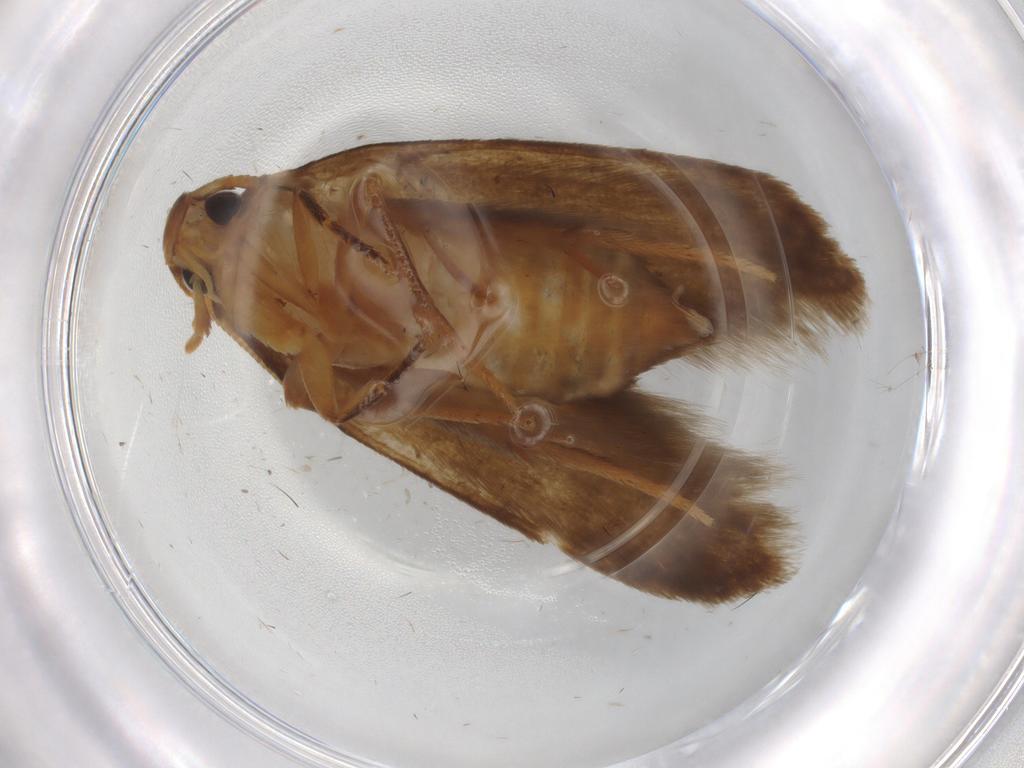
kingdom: Animalia
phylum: Arthropoda
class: Insecta
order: Lepidoptera
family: Tineidae
